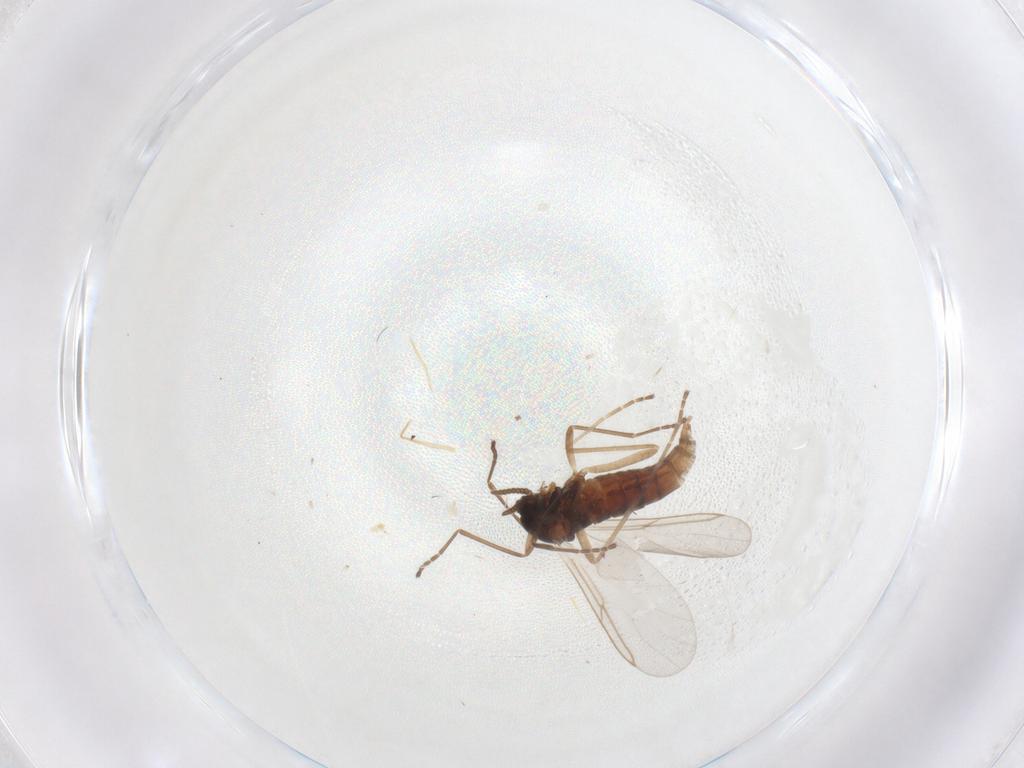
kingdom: Animalia
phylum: Arthropoda
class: Insecta
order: Diptera
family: Cecidomyiidae
